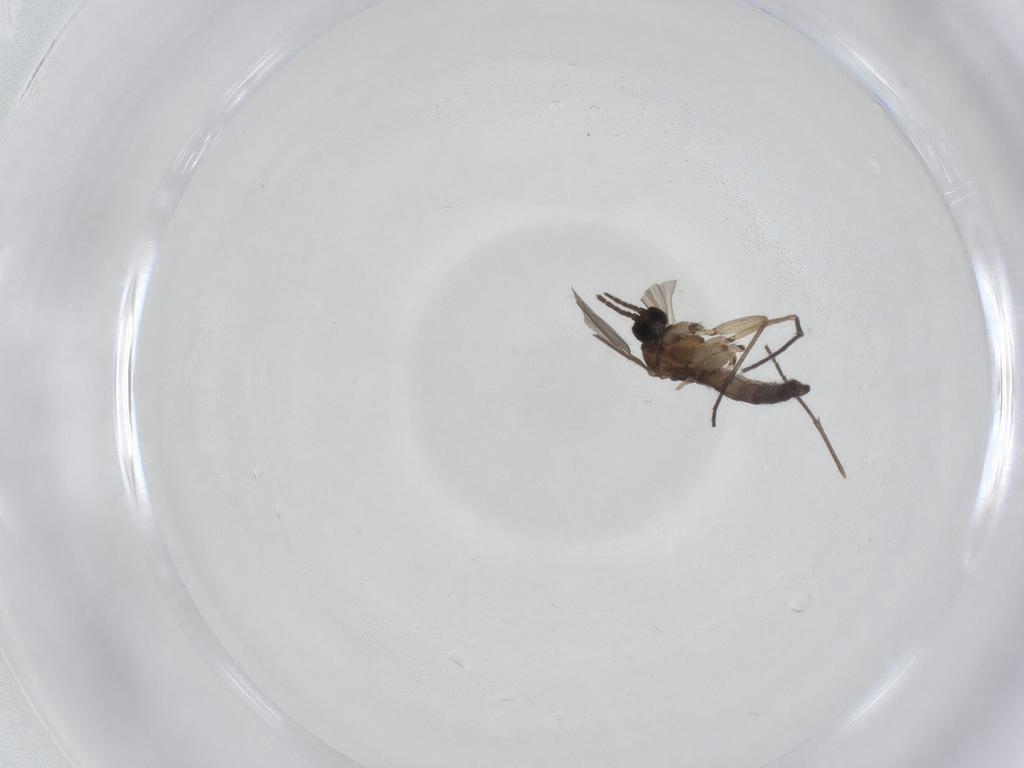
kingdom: Animalia
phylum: Arthropoda
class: Insecta
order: Diptera
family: Sciaridae
